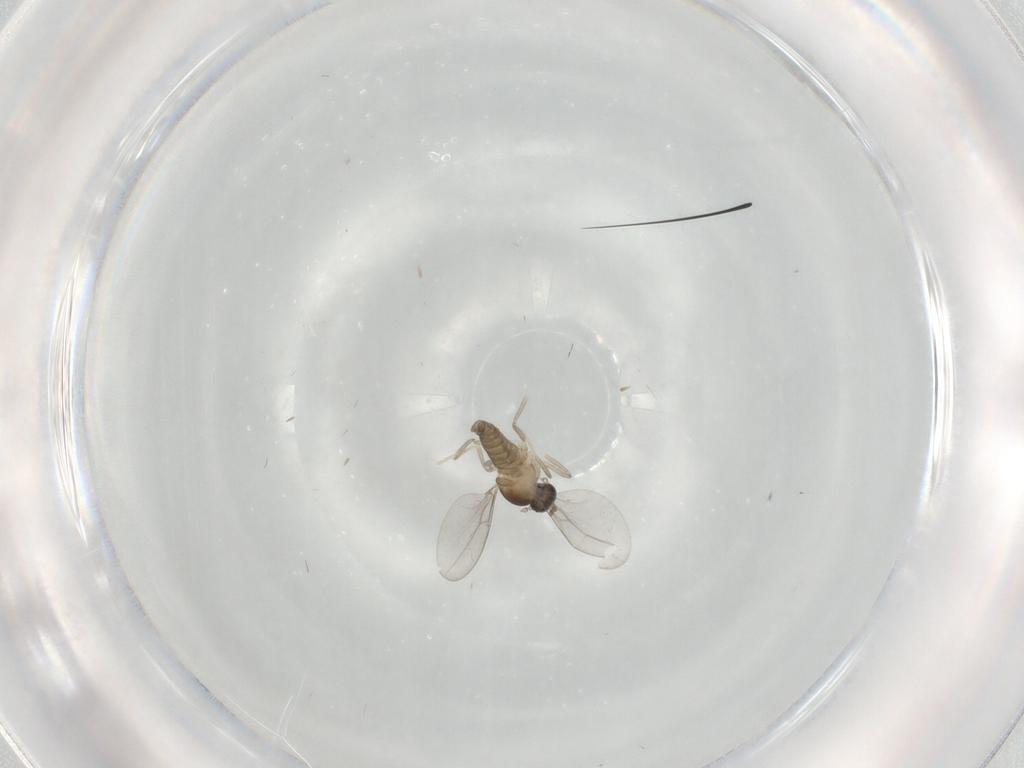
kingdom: Animalia
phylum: Arthropoda
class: Insecta
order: Diptera
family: Cecidomyiidae
